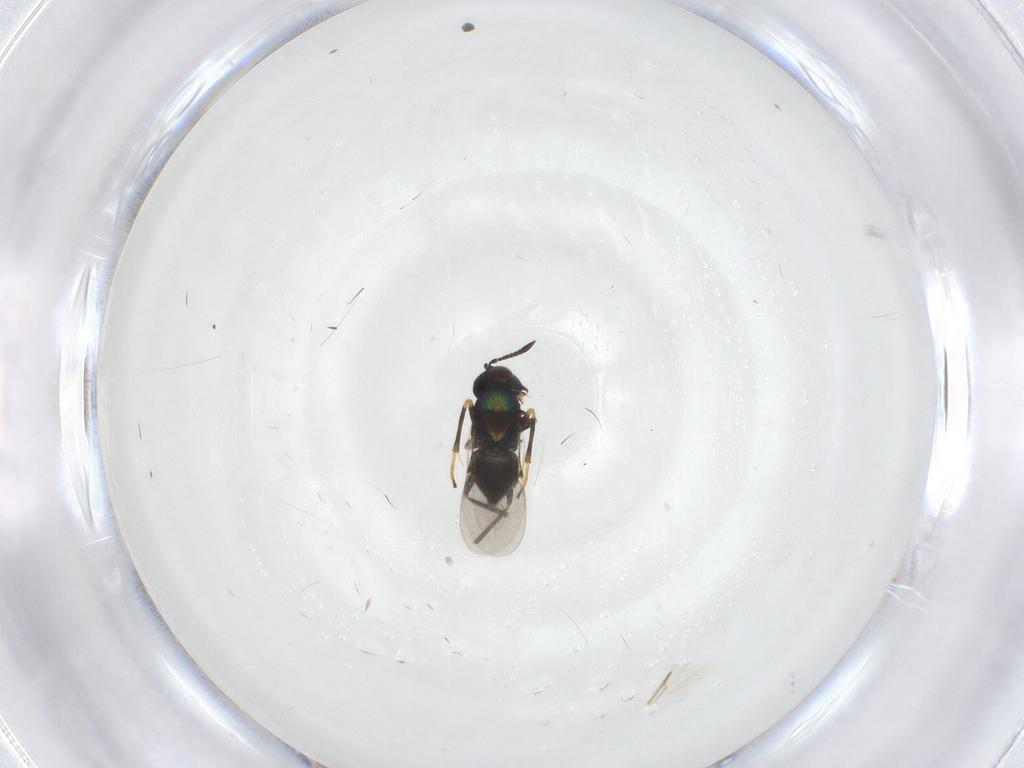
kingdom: Animalia
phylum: Arthropoda
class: Insecta
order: Hymenoptera
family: Encyrtidae
